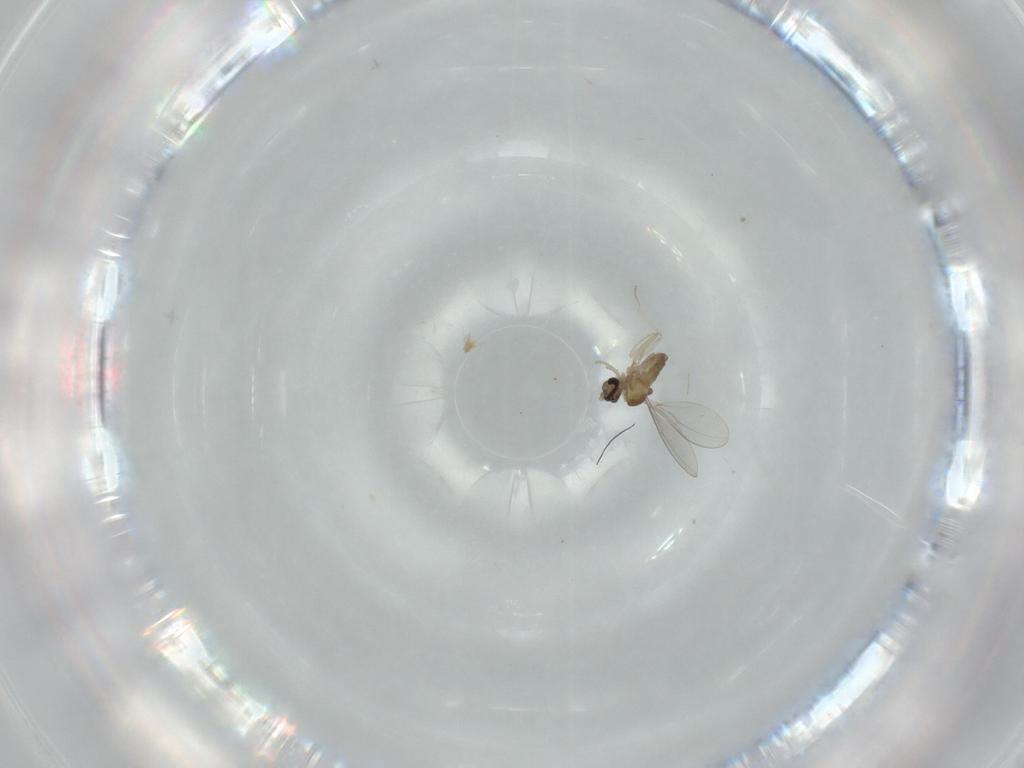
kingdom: Animalia
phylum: Arthropoda
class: Insecta
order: Diptera
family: Cecidomyiidae
